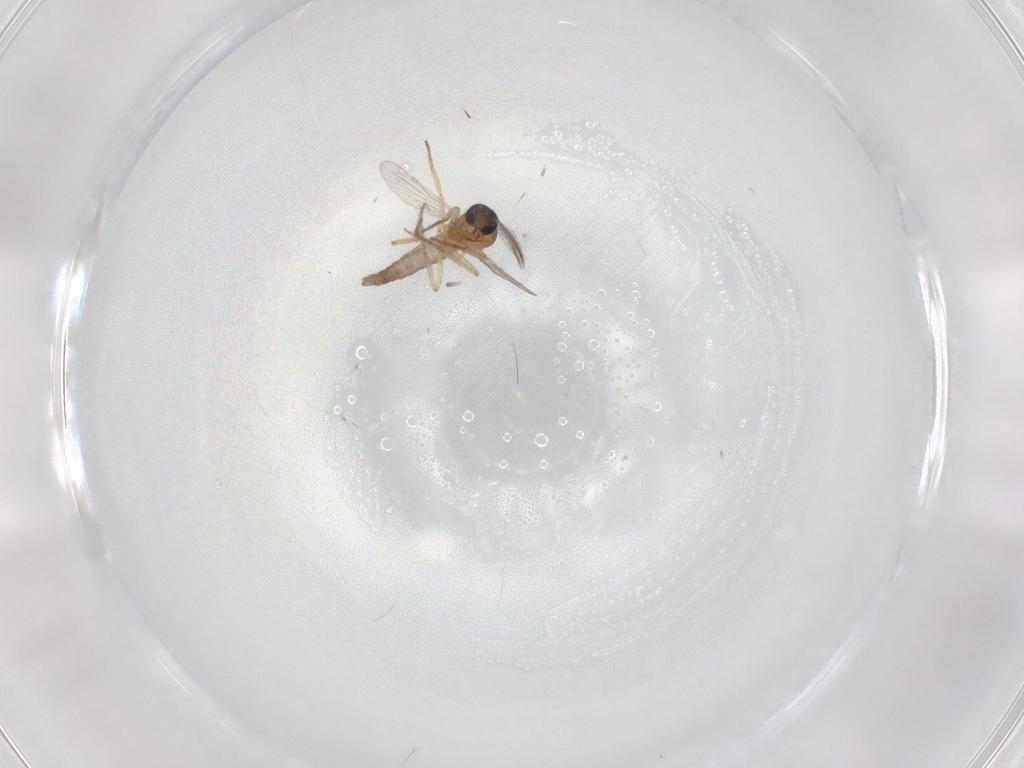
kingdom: Animalia
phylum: Arthropoda
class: Insecta
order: Diptera
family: Chironomidae
